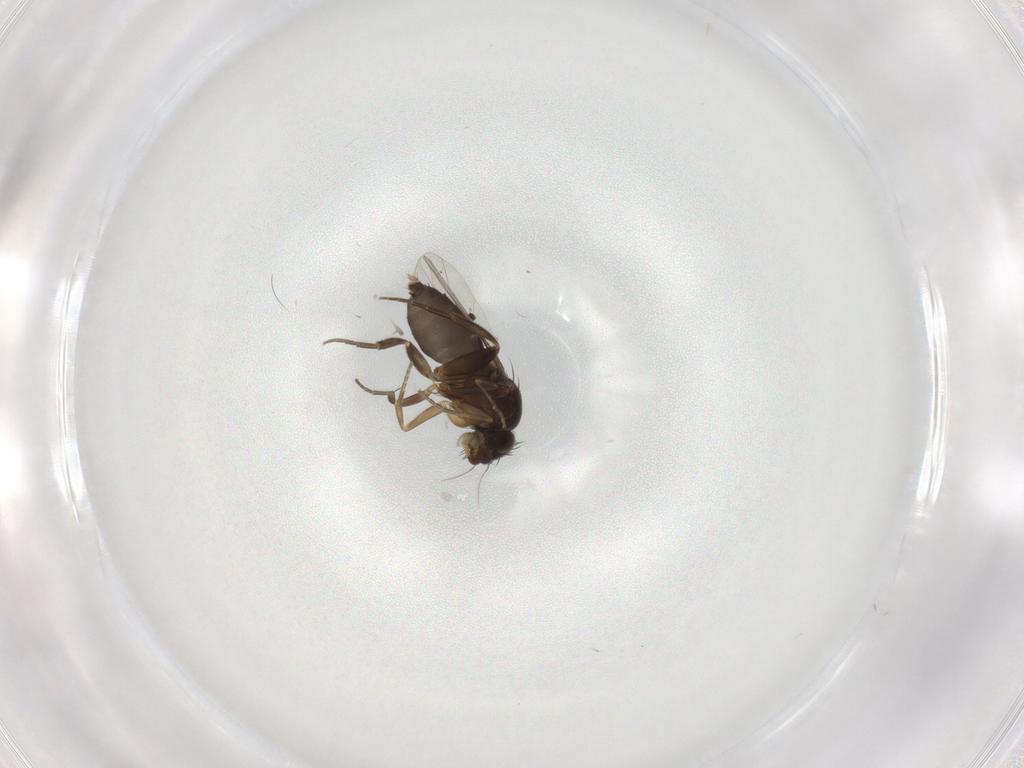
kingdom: Animalia
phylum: Arthropoda
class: Insecta
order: Diptera
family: Phoridae
